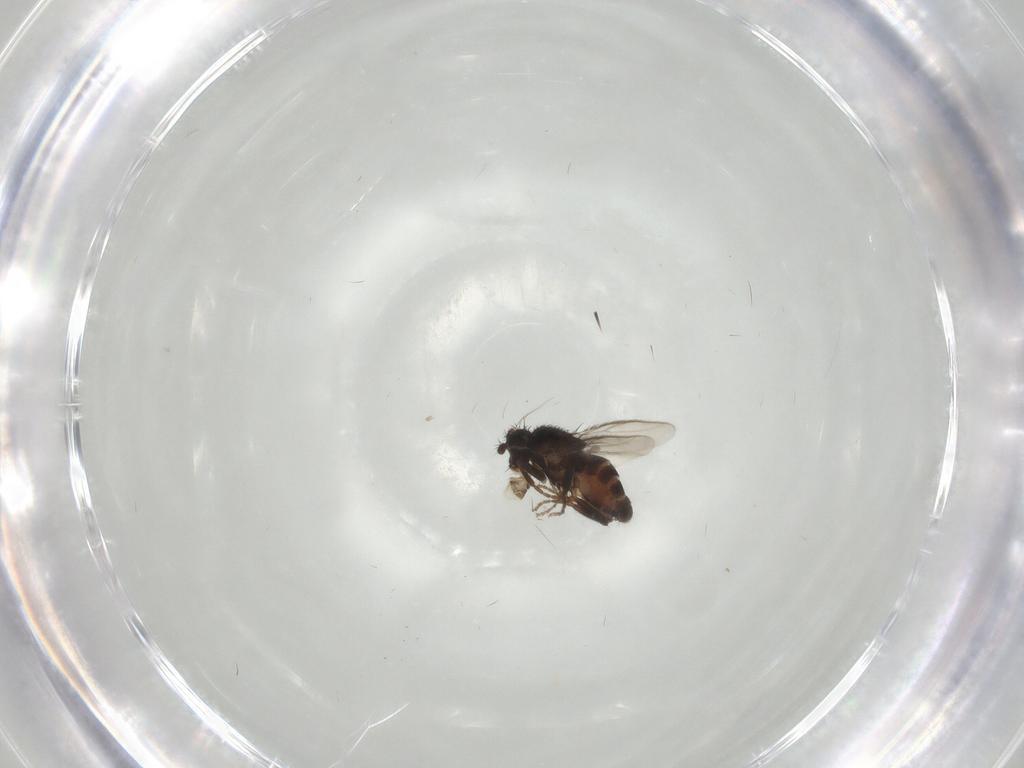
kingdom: Animalia
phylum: Arthropoda
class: Insecta
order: Diptera
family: Sphaeroceridae
